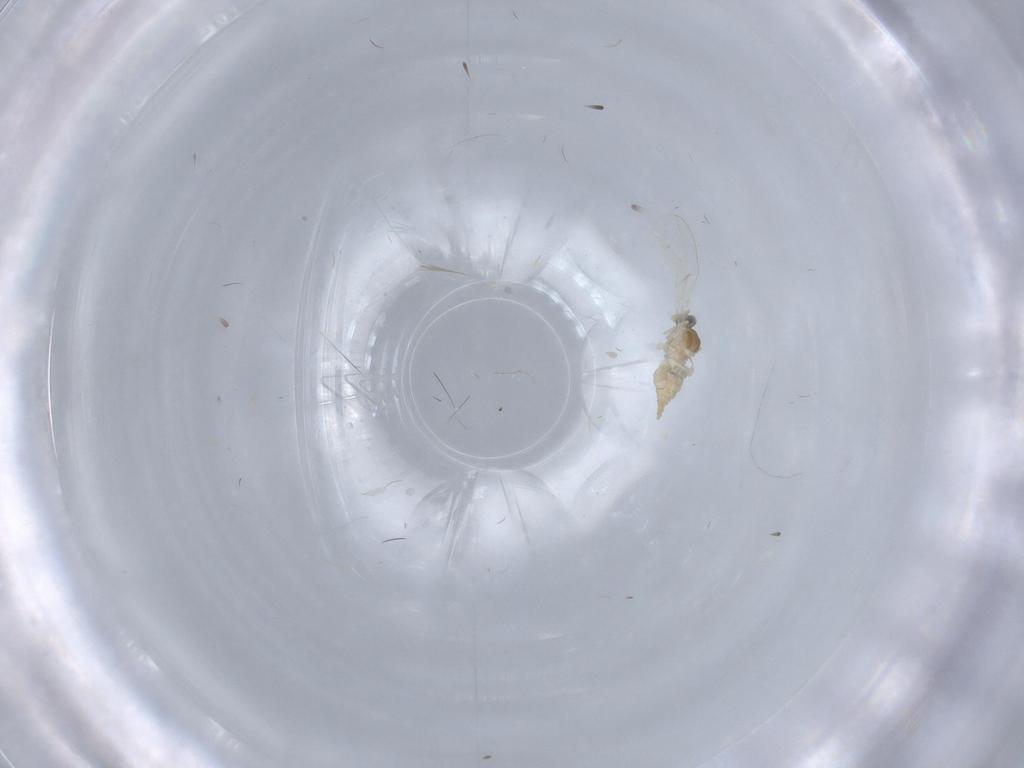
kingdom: Animalia
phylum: Arthropoda
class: Insecta
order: Diptera
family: Cecidomyiidae
